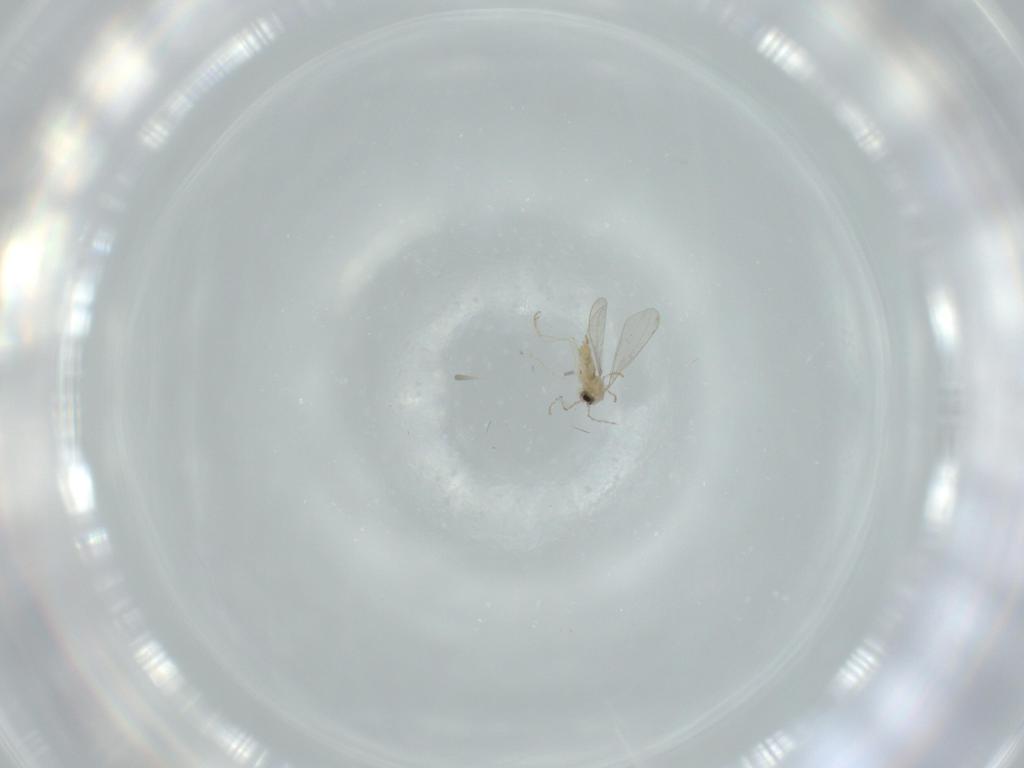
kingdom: Animalia
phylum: Arthropoda
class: Insecta
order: Diptera
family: Cecidomyiidae
